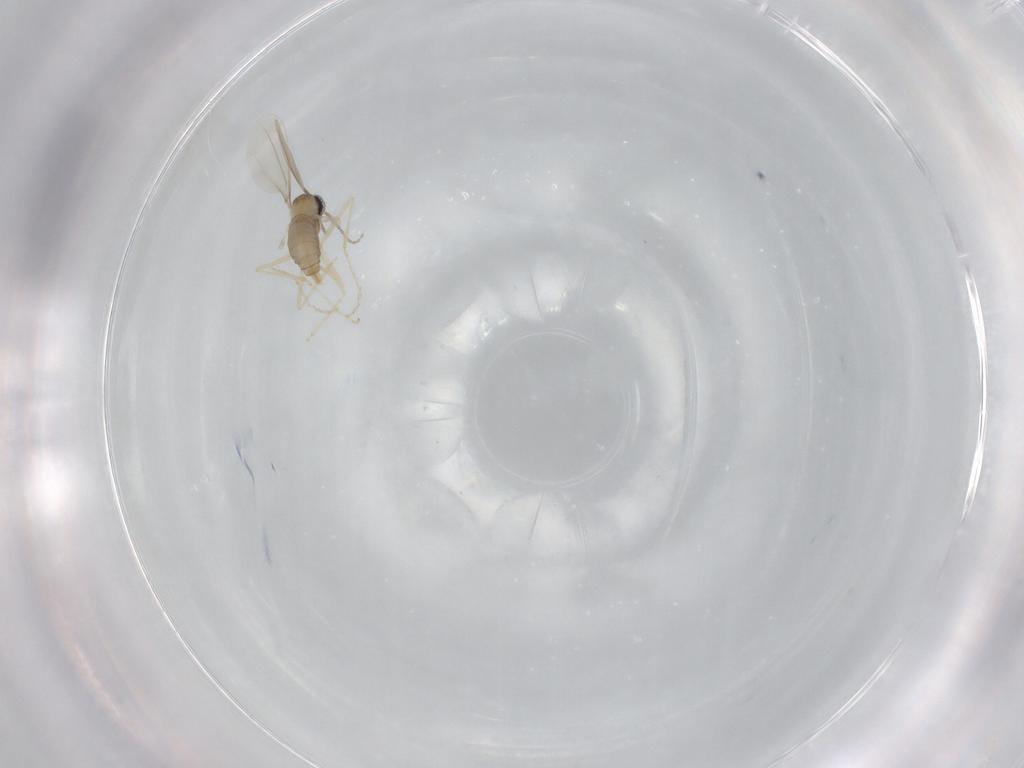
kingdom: Animalia
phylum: Arthropoda
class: Insecta
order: Diptera
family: Cecidomyiidae
